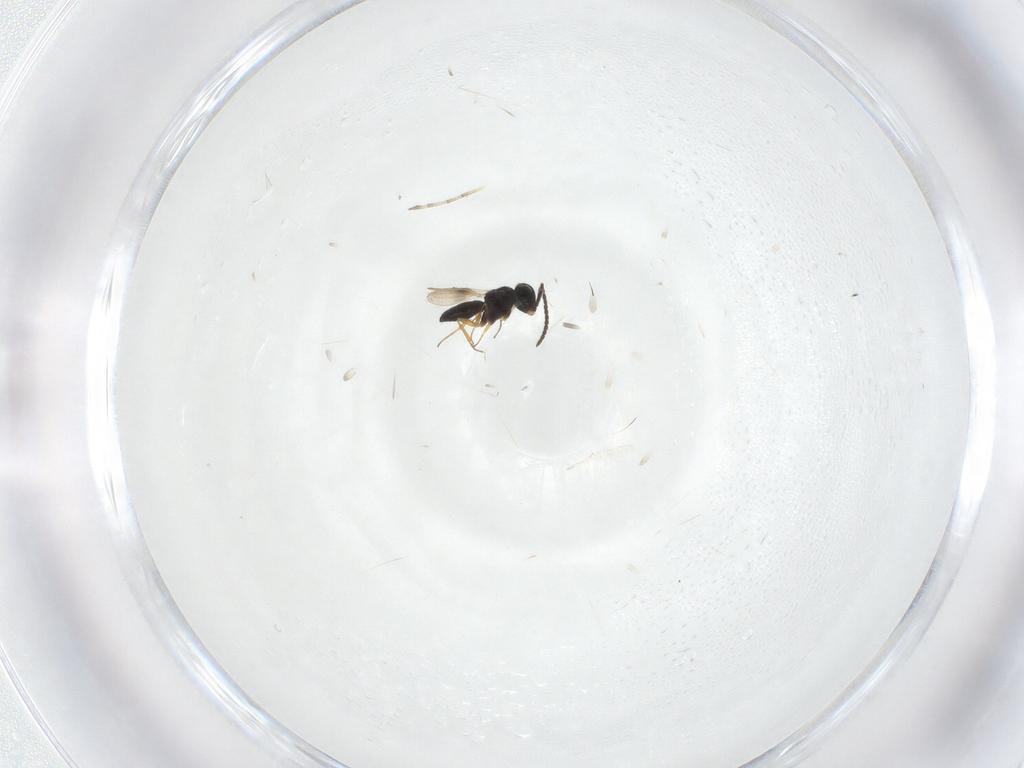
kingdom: Animalia
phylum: Arthropoda
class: Insecta
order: Hymenoptera
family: Scelionidae
